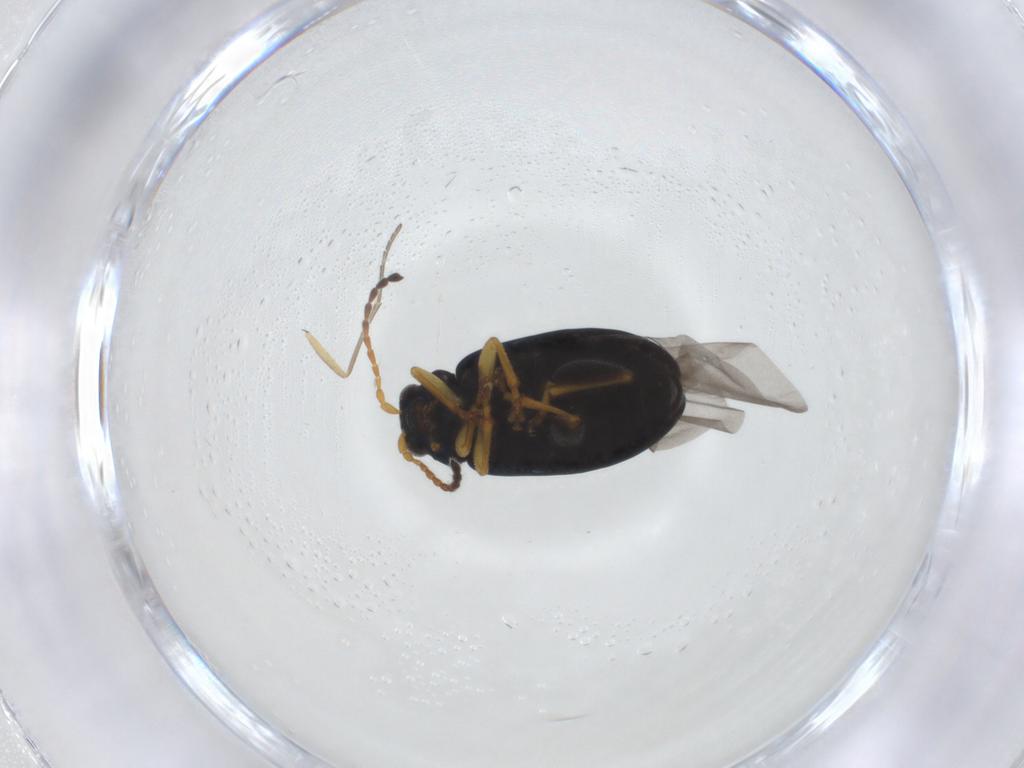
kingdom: Animalia
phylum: Arthropoda
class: Insecta
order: Coleoptera
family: Chrysomelidae
